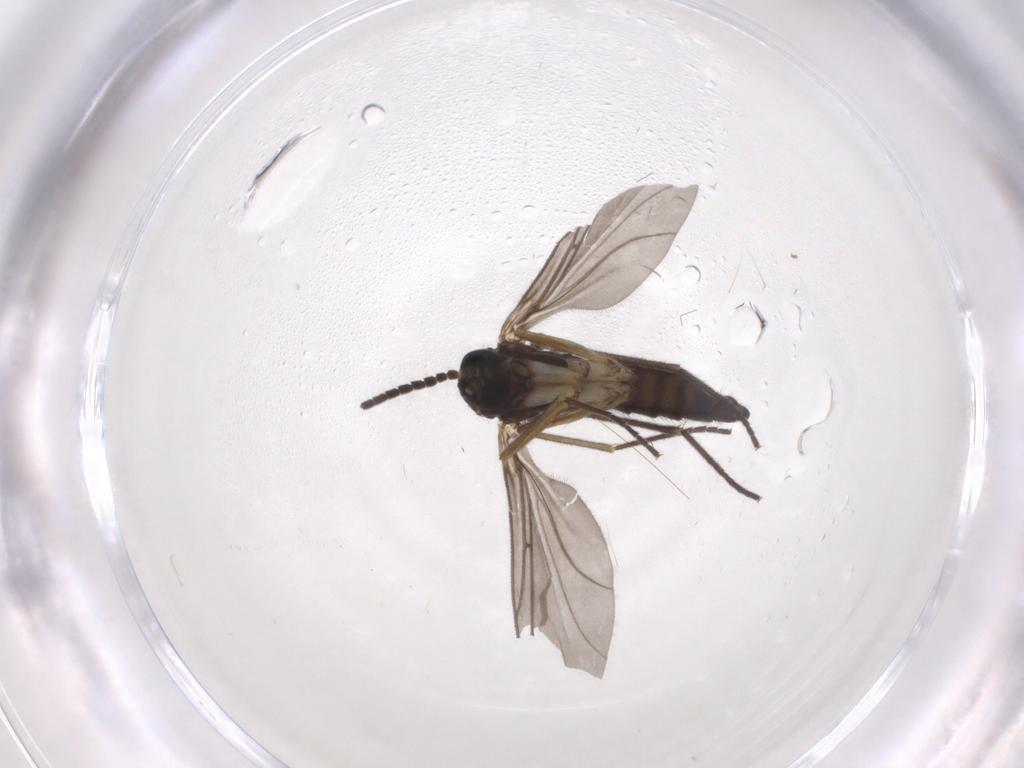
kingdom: Animalia
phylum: Arthropoda
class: Insecta
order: Diptera
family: Sciaridae
